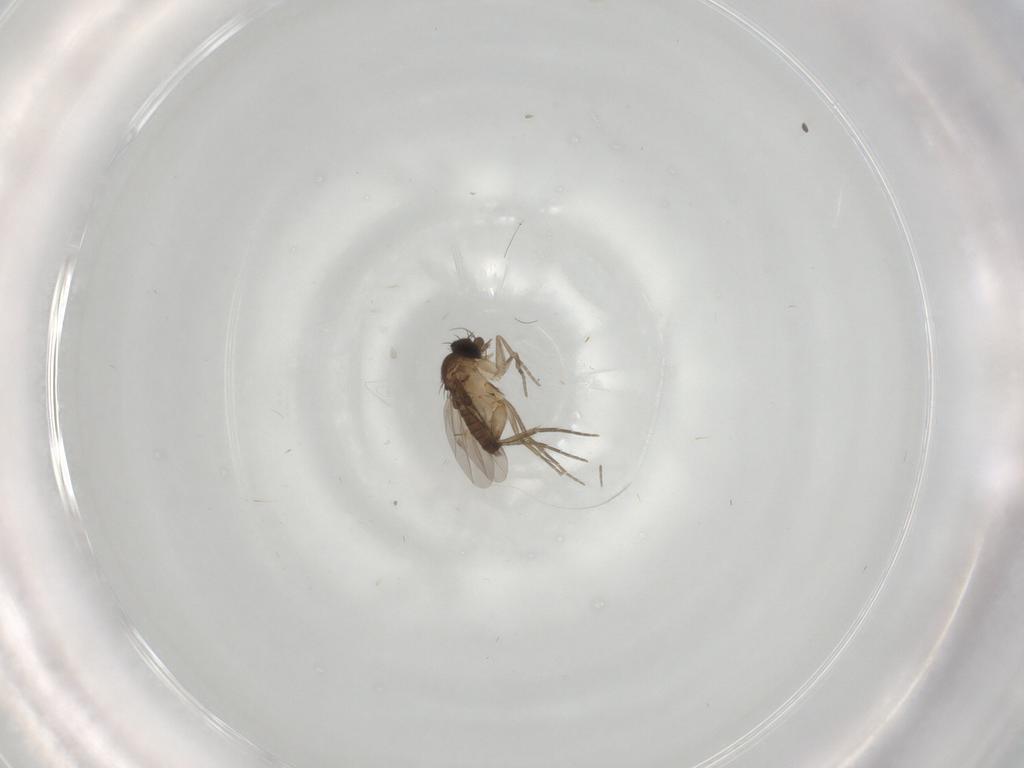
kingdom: Animalia
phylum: Arthropoda
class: Insecta
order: Diptera
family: Phoridae
